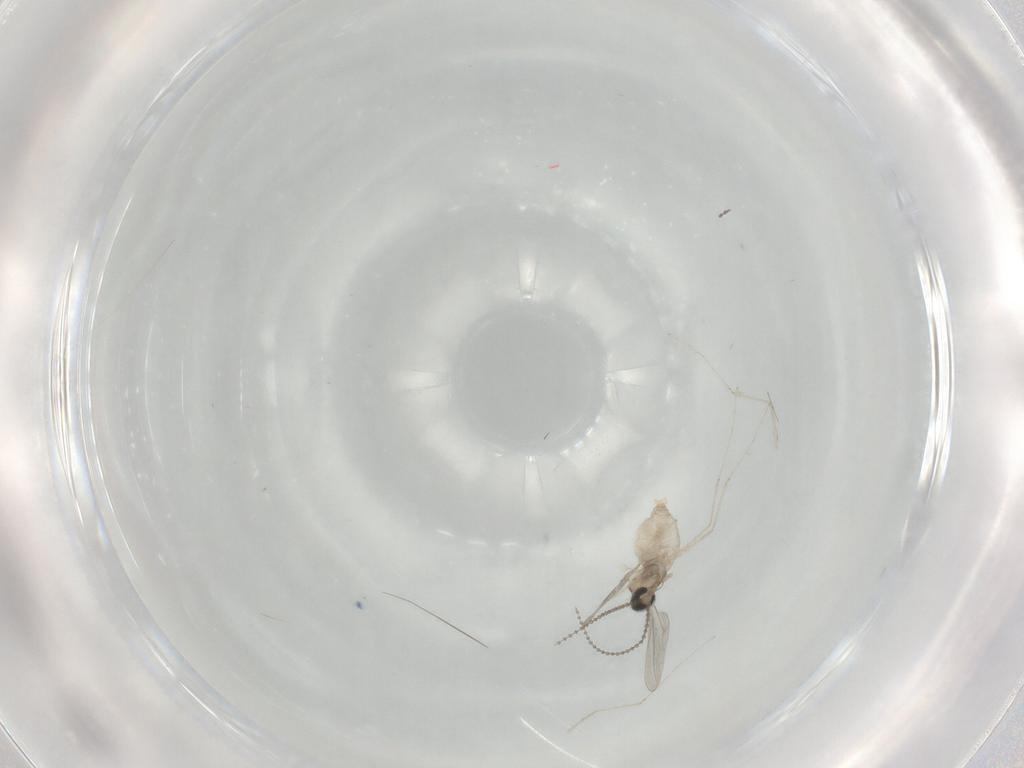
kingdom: Animalia
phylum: Arthropoda
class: Insecta
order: Diptera
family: Cecidomyiidae
